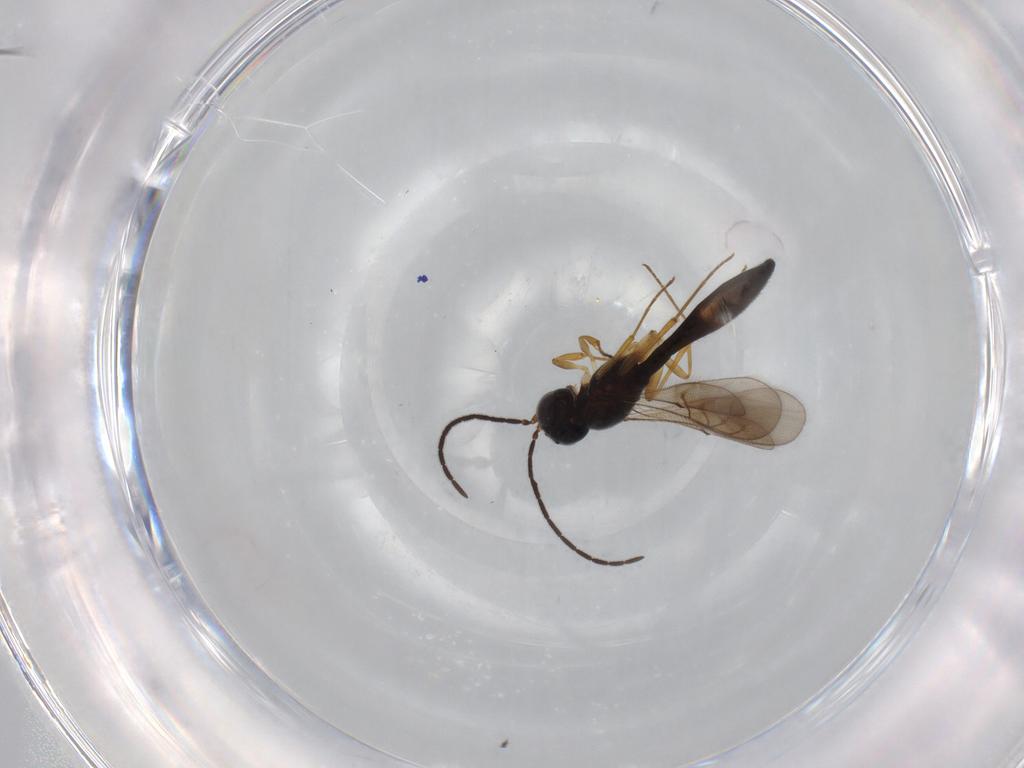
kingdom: Animalia
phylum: Arthropoda
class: Insecta
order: Hymenoptera
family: Scelionidae
